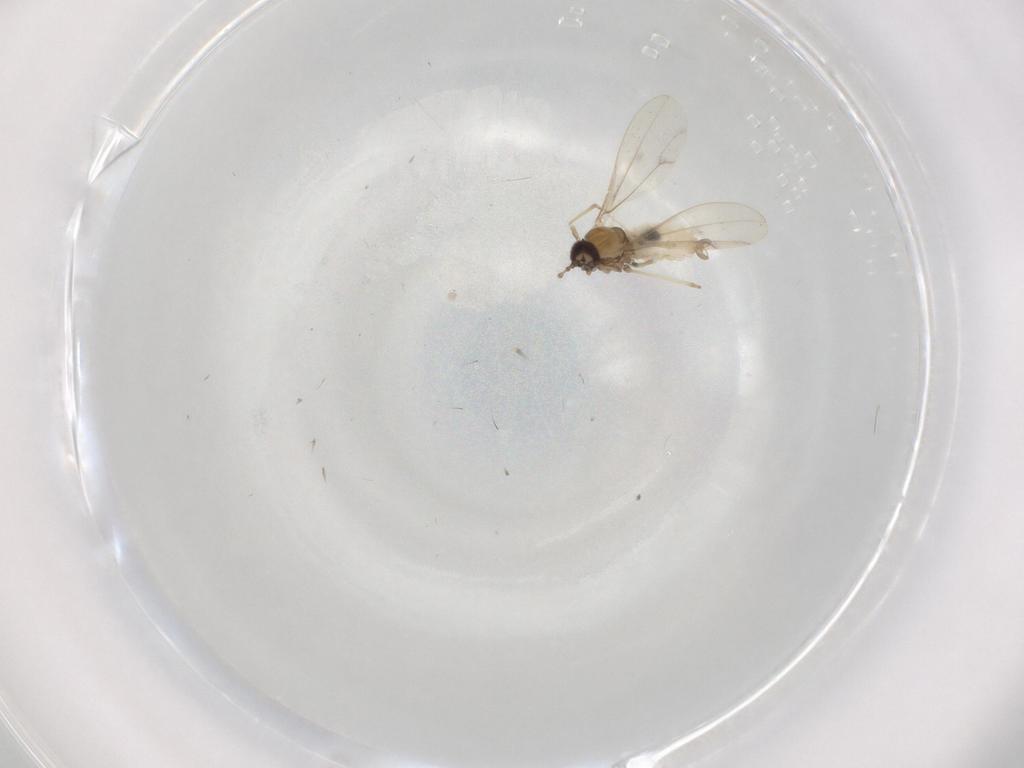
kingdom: Animalia
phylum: Arthropoda
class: Insecta
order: Diptera
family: Cecidomyiidae
